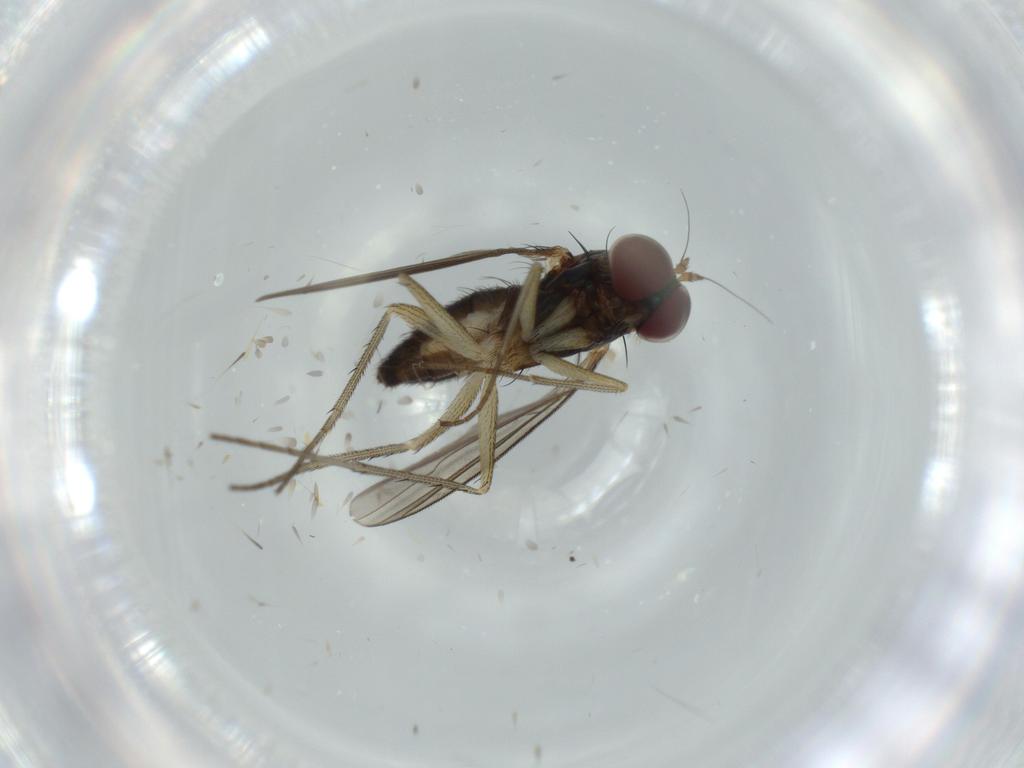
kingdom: Animalia
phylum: Arthropoda
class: Insecta
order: Diptera
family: Dolichopodidae
